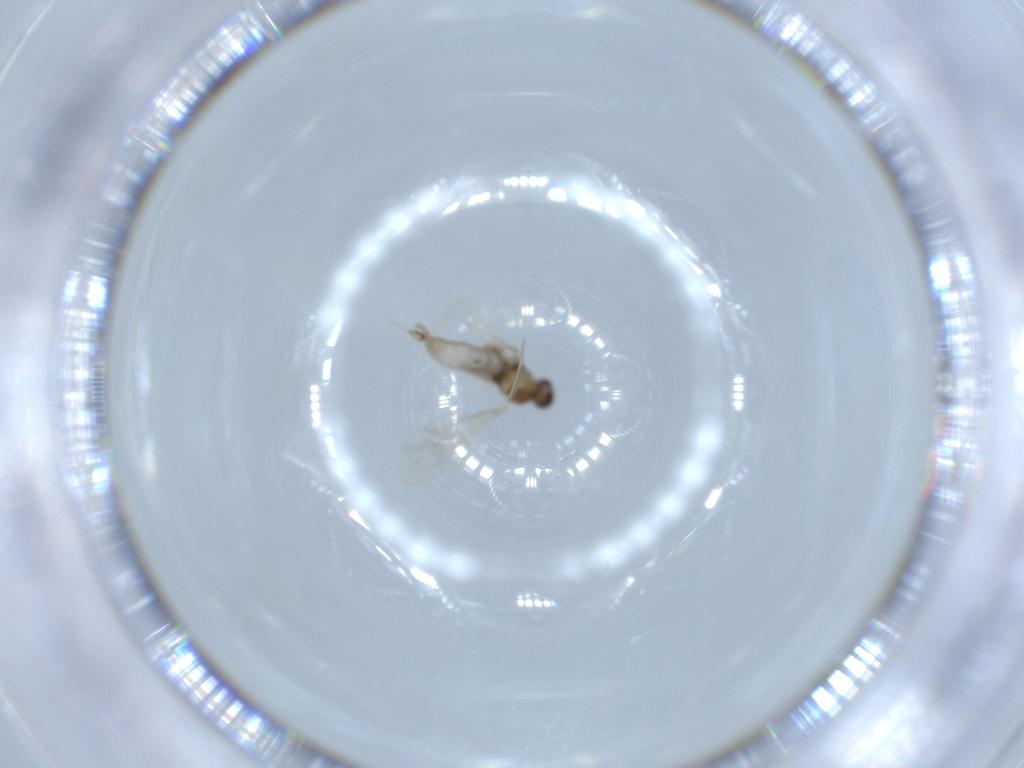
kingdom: Animalia
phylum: Arthropoda
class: Insecta
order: Diptera
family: Cecidomyiidae
